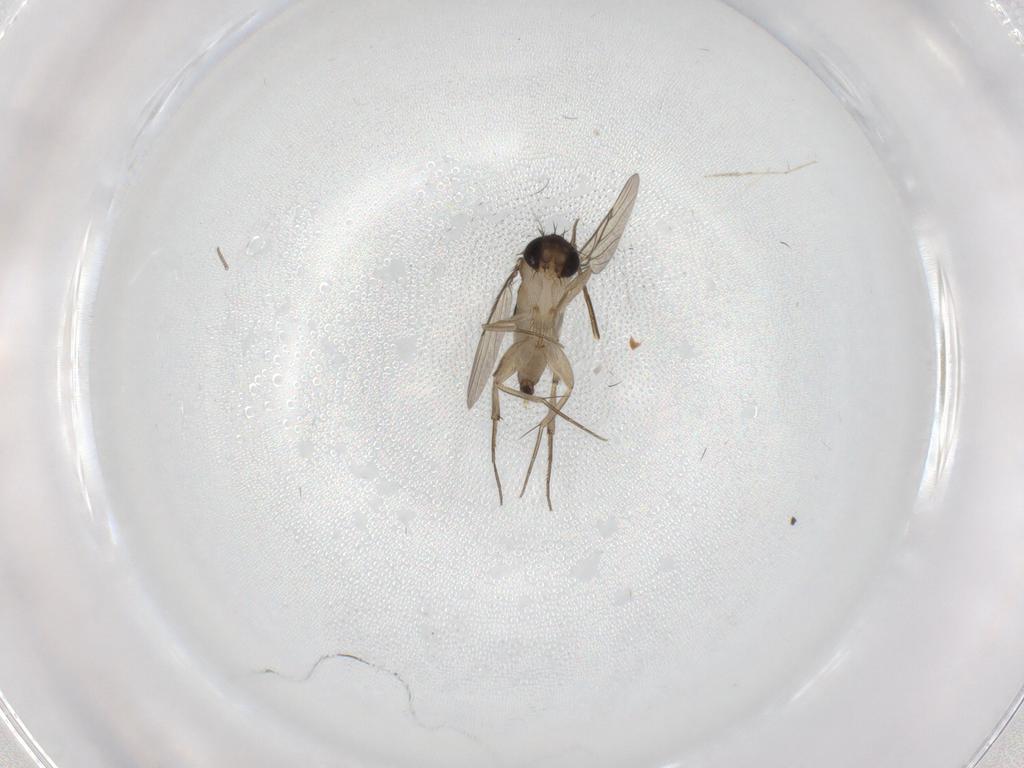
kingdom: Animalia
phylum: Arthropoda
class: Insecta
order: Diptera
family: Phoridae
